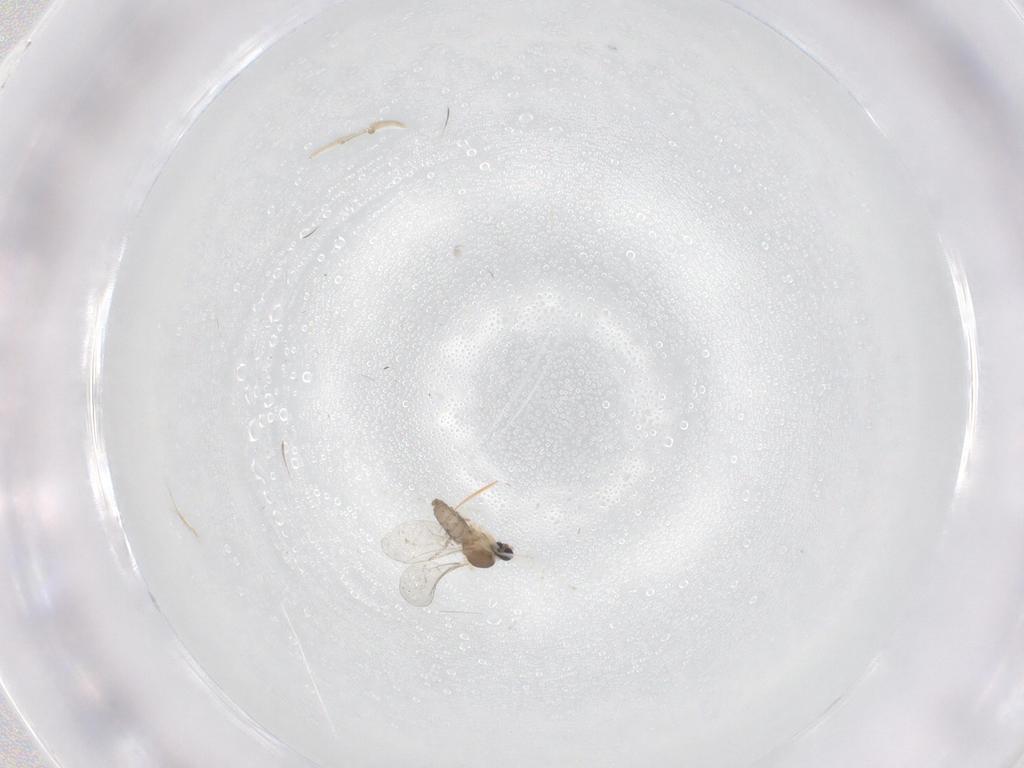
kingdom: Animalia
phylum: Arthropoda
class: Insecta
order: Diptera
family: Cecidomyiidae
